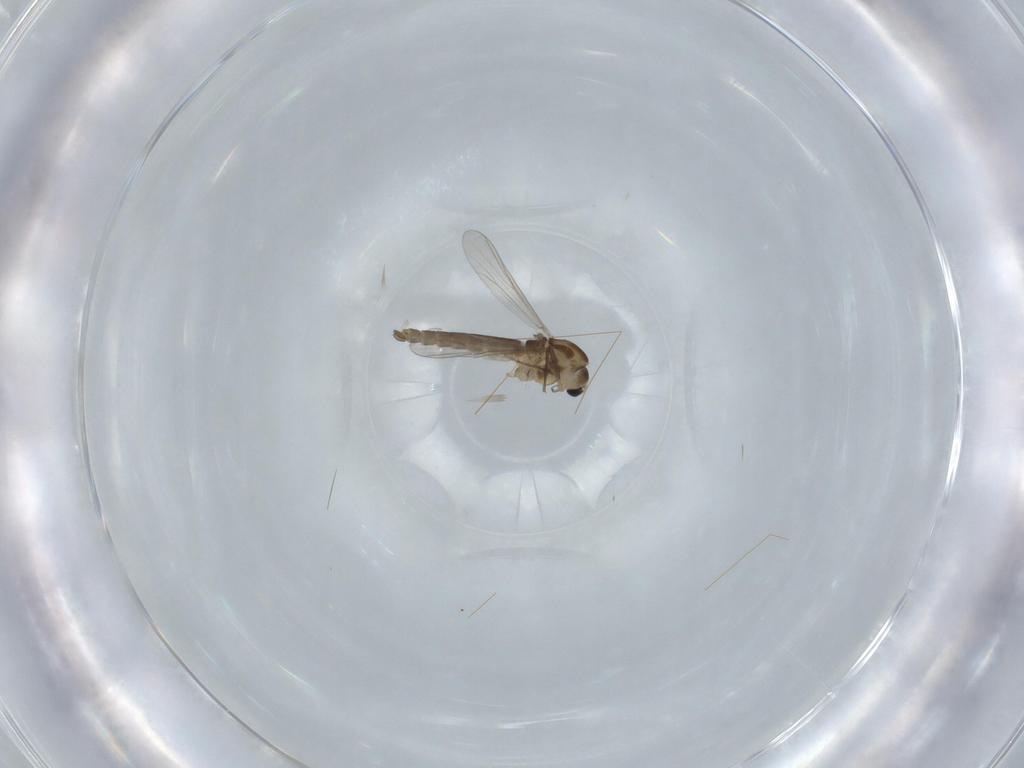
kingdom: Animalia
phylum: Arthropoda
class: Insecta
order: Diptera
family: Chironomidae
